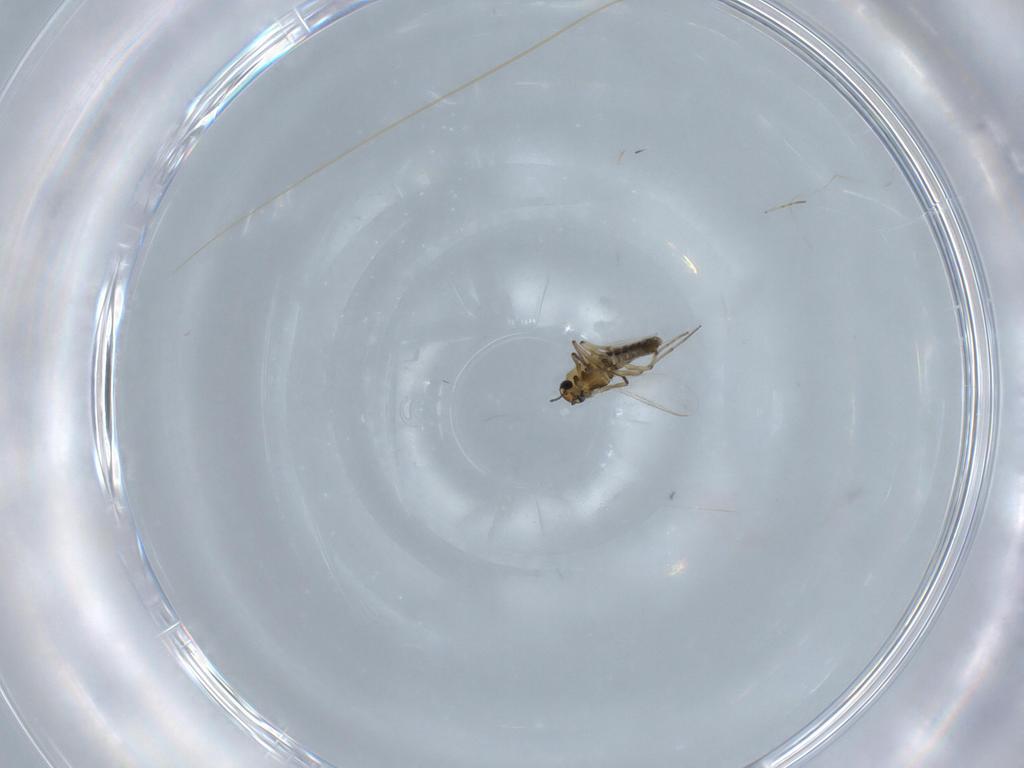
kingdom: Animalia
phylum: Arthropoda
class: Insecta
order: Diptera
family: Chironomidae
